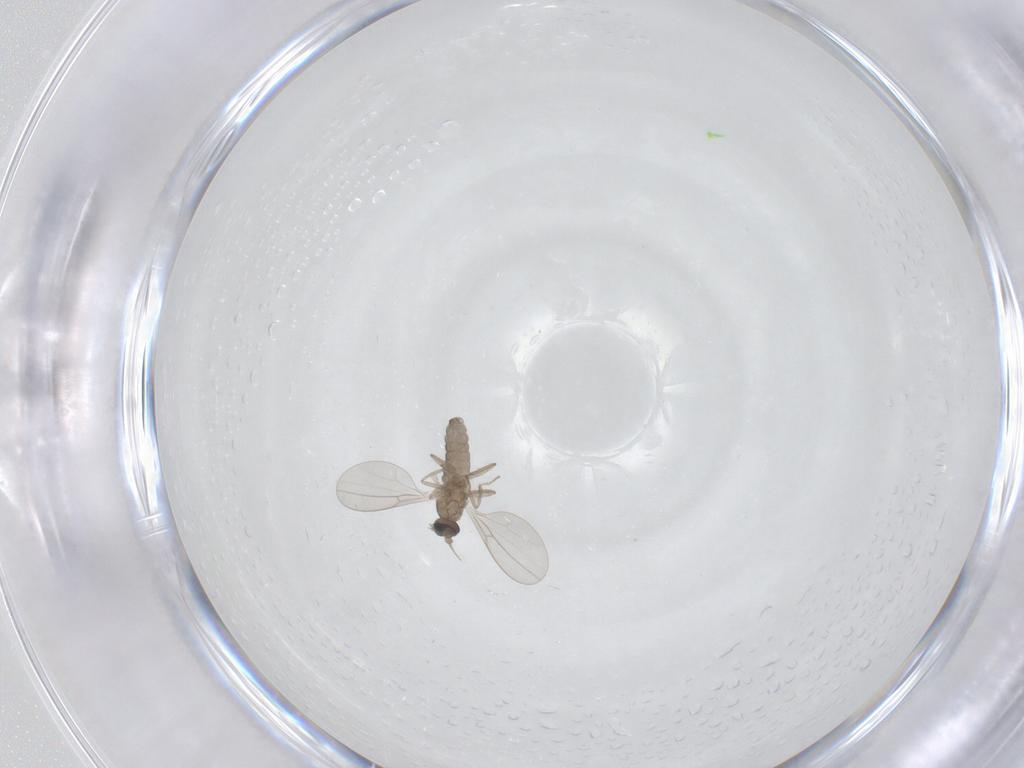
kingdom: Animalia
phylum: Arthropoda
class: Insecta
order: Diptera
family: Cecidomyiidae
